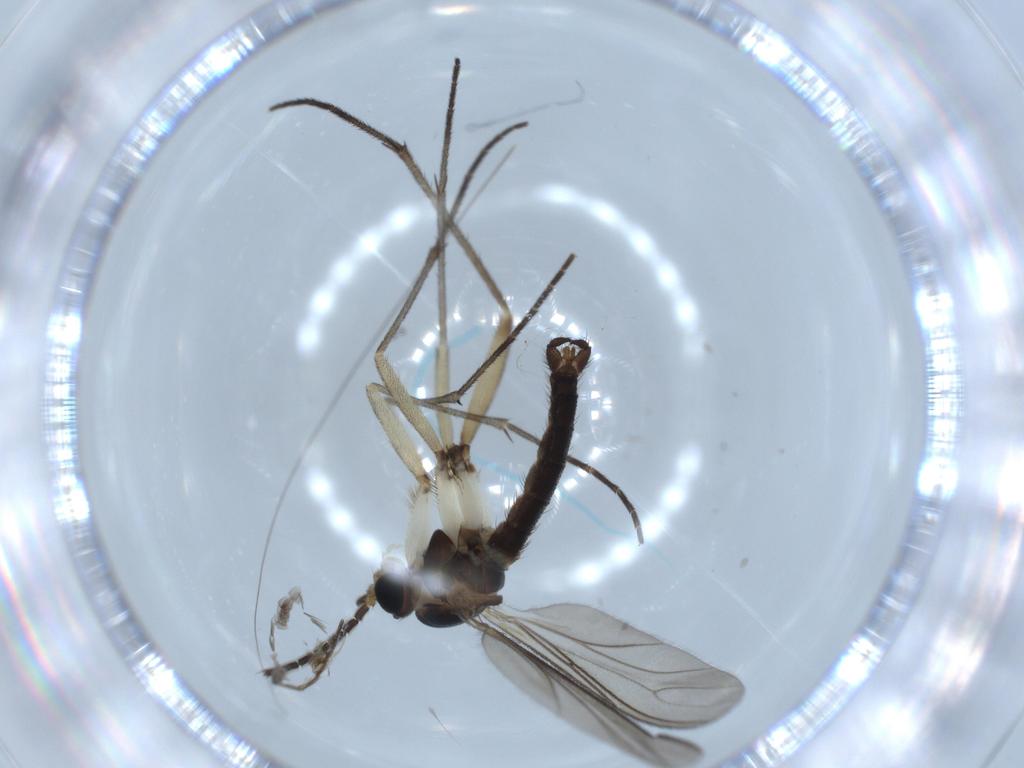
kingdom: Animalia
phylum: Arthropoda
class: Insecta
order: Diptera
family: Sciaridae
